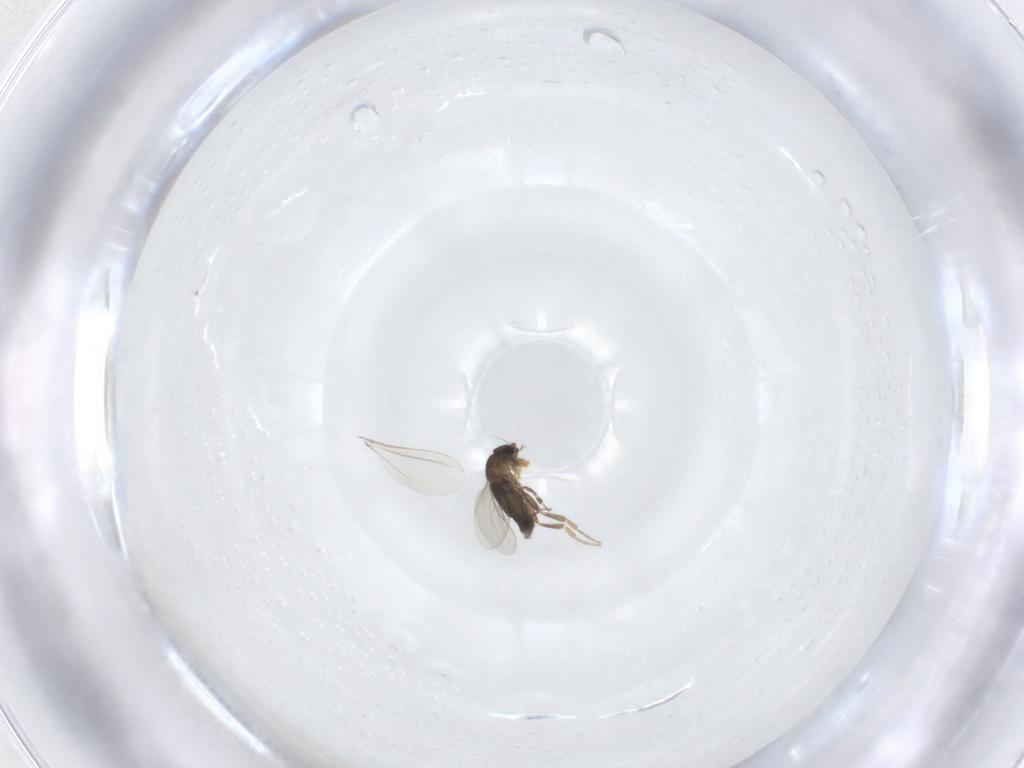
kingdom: Animalia
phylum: Arthropoda
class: Insecta
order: Diptera
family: Phoridae
